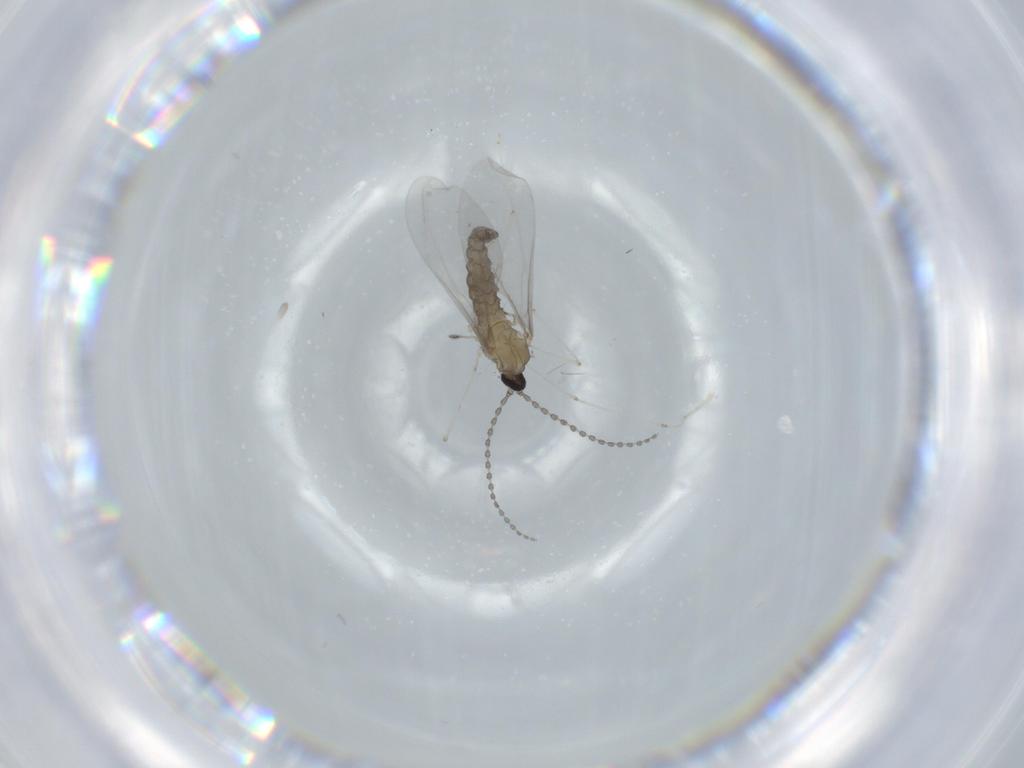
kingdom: Animalia
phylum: Arthropoda
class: Insecta
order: Diptera
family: Cecidomyiidae
